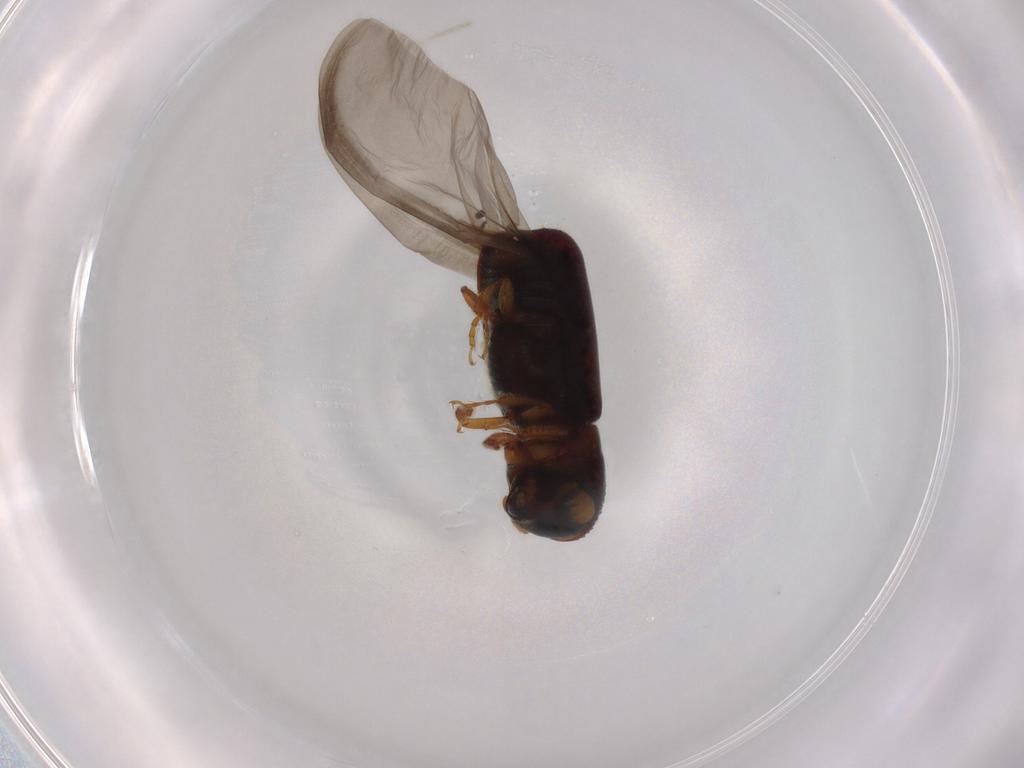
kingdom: Animalia
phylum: Arthropoda
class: Insecta
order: Coleoptera
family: Curculionidae
